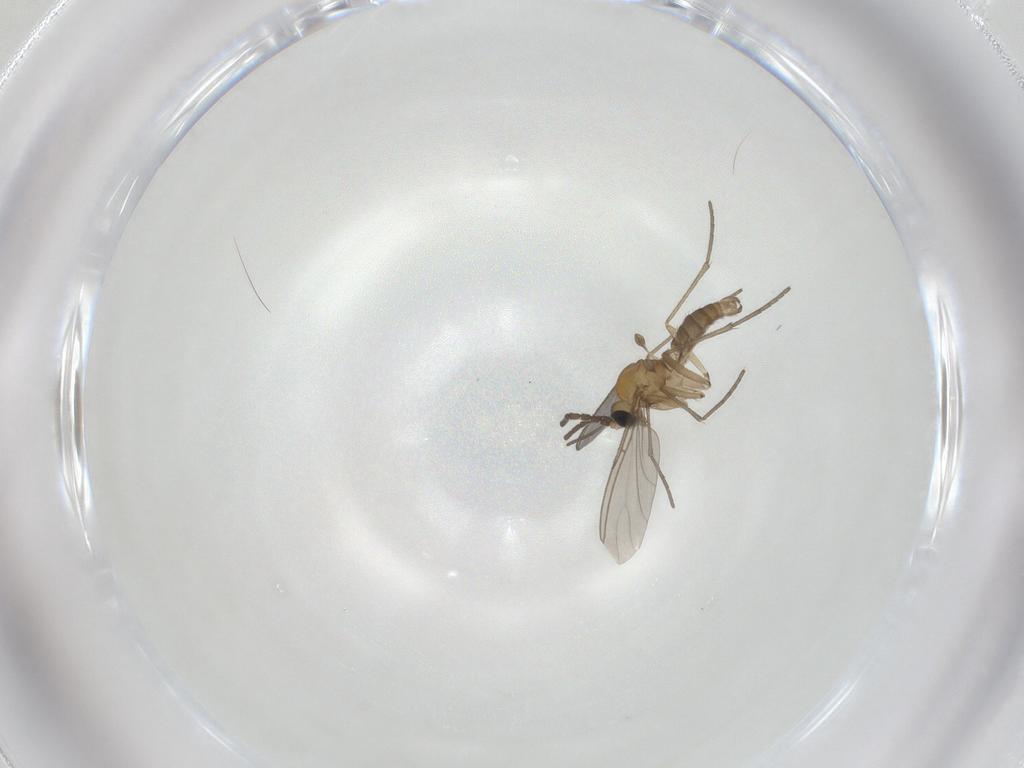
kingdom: Animalia
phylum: Arthropoda
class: Insecta
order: Diptera
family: Sciaridae
